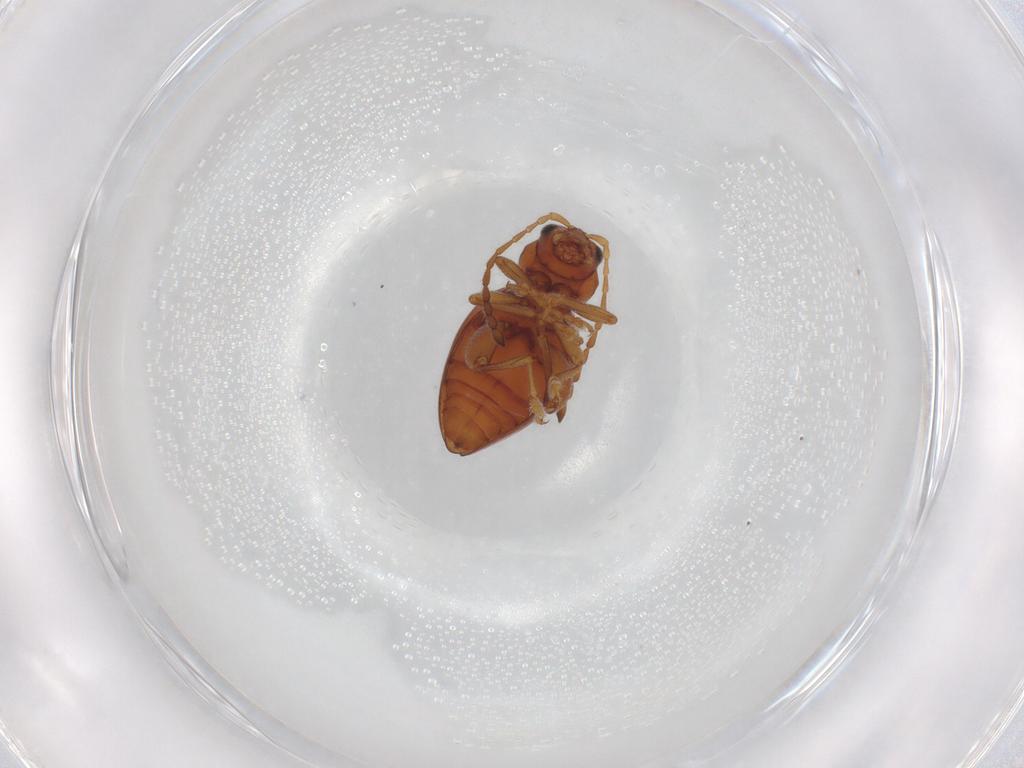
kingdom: Animalia
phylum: Arthropoda
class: Insecta
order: Coleoptera
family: Chrysomelidae
